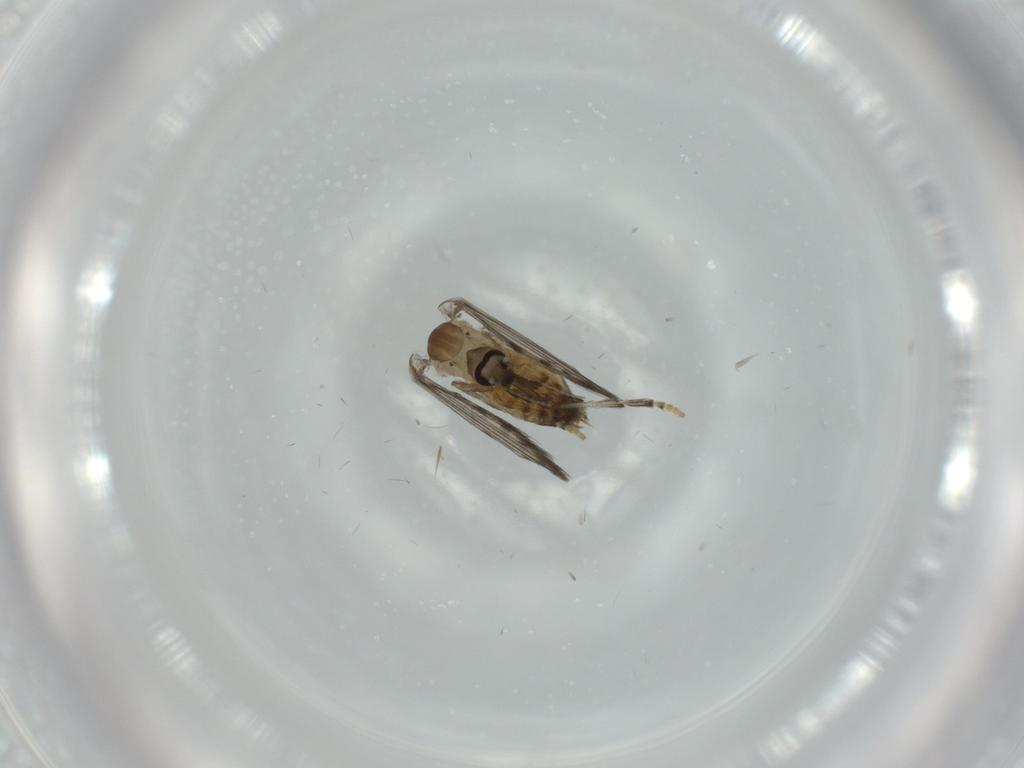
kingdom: Animalia
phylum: Arthropoda
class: Insecta
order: Diptera
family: Psychodidae
